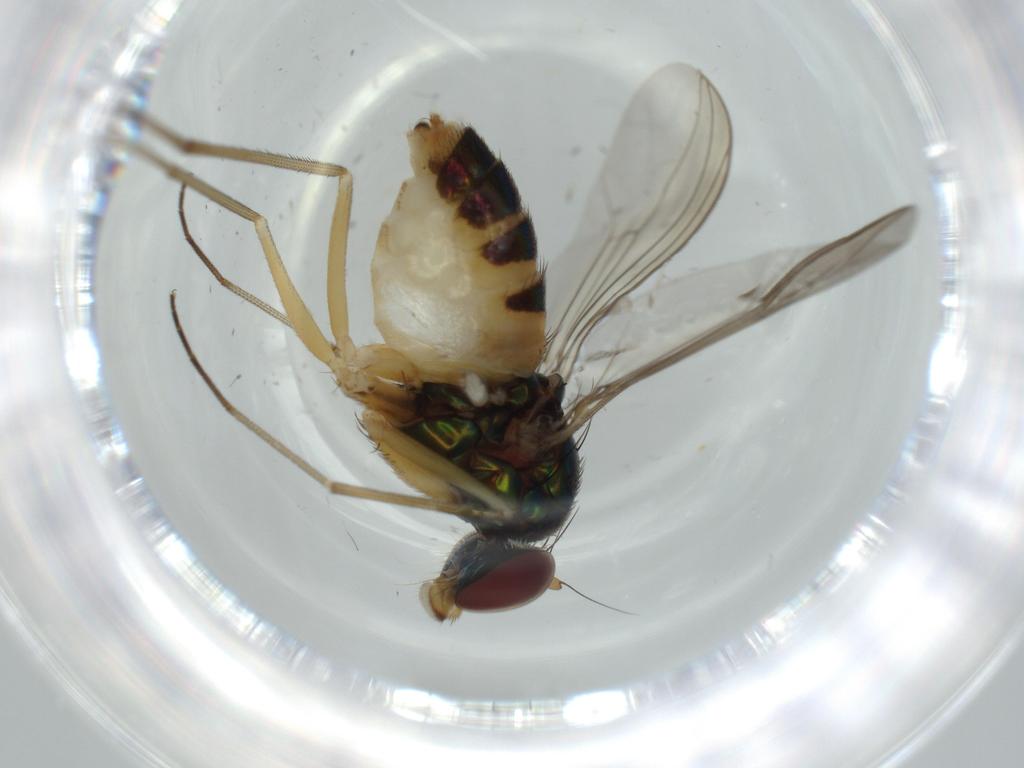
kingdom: Animalia
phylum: Arthropoda
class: Insecta
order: Diptera
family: Dolichopodidae
